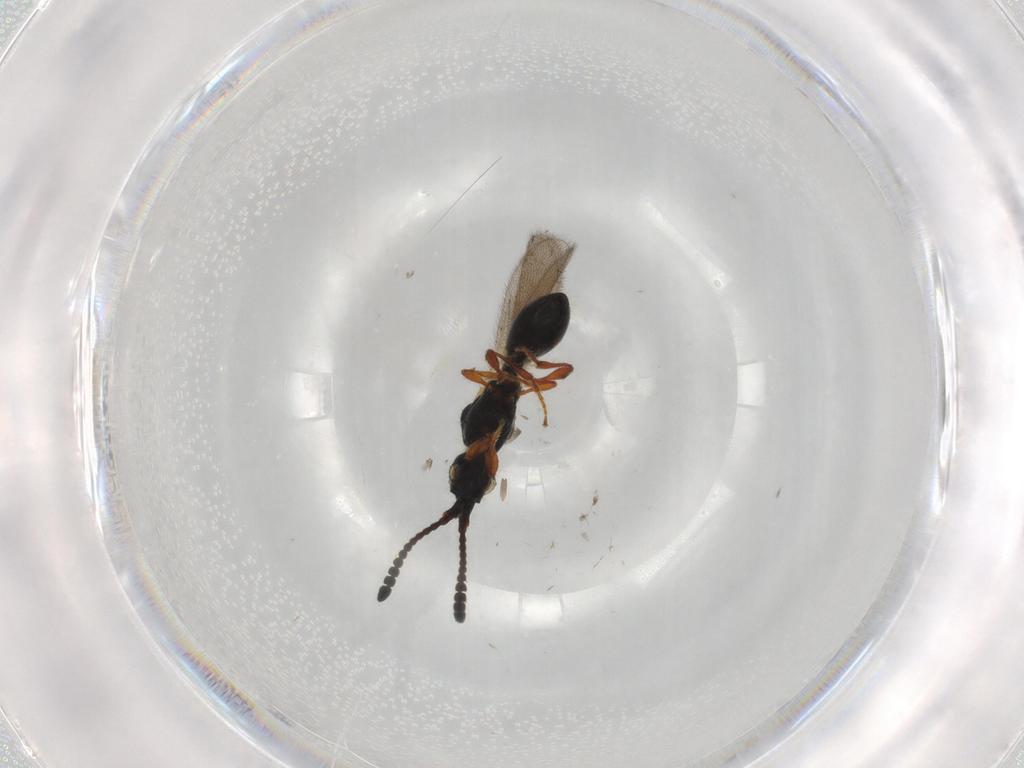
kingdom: Animalia
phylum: Arthropoda
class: Insecta
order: Hymenoptera
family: Diapriidae
